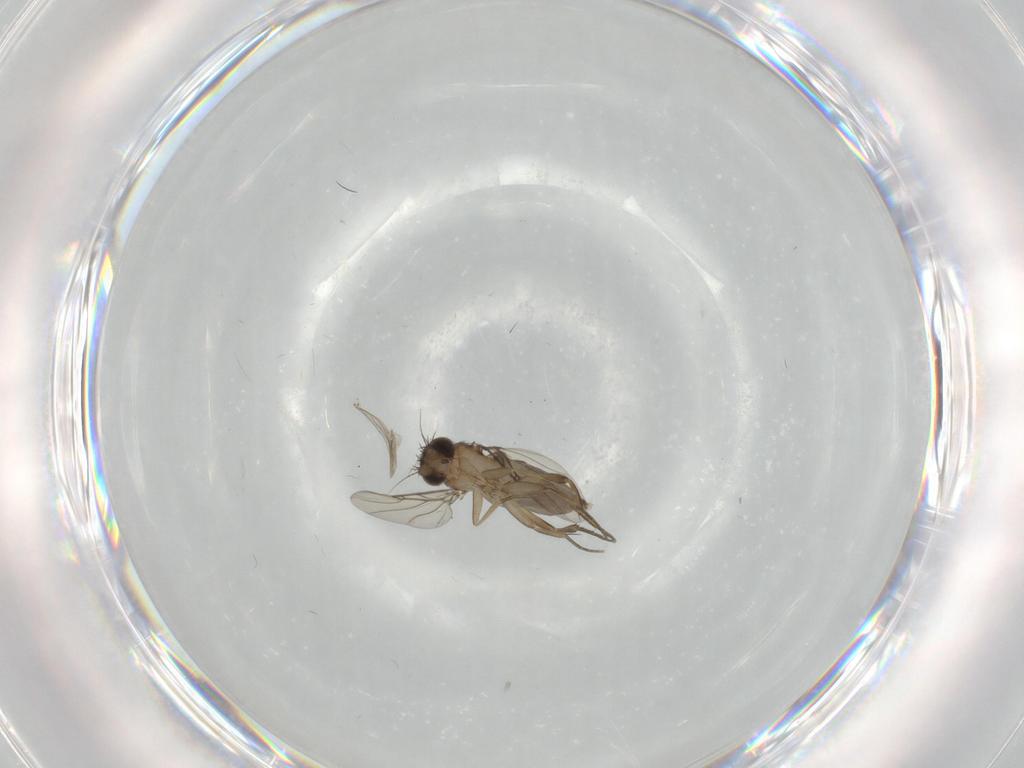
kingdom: Animalia
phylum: Arthropoda
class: Insecta
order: Diptera
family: Phoridae
